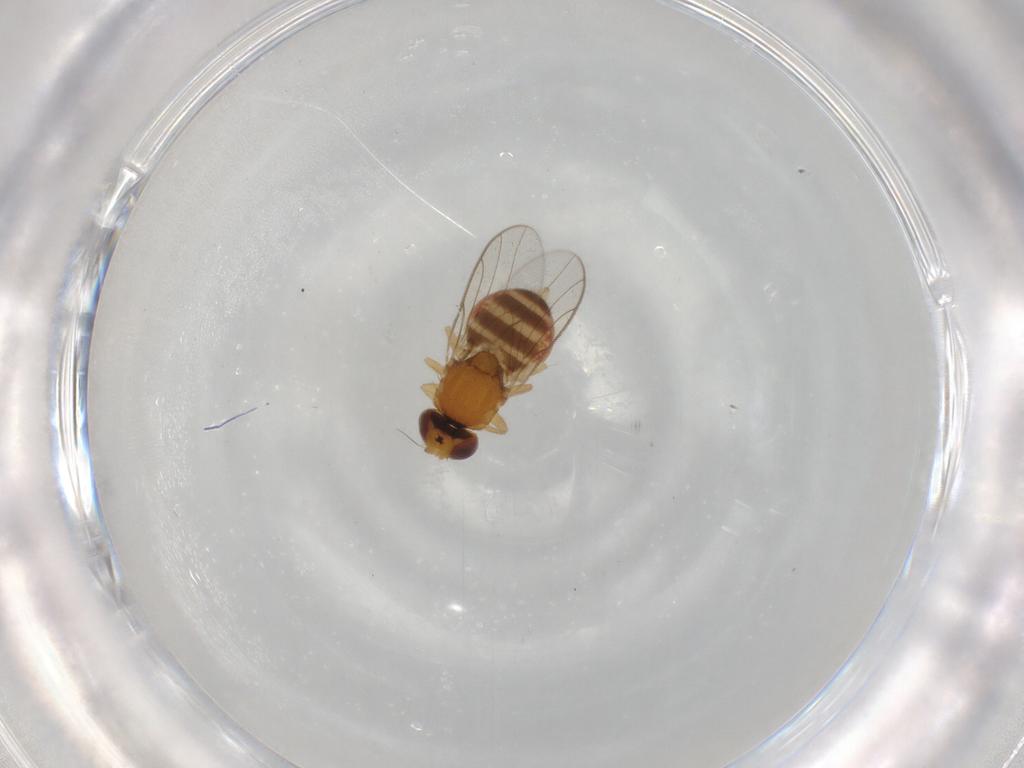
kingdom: Animalia
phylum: Arthropoda
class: Insecta
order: Diptera
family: Chloropidae
